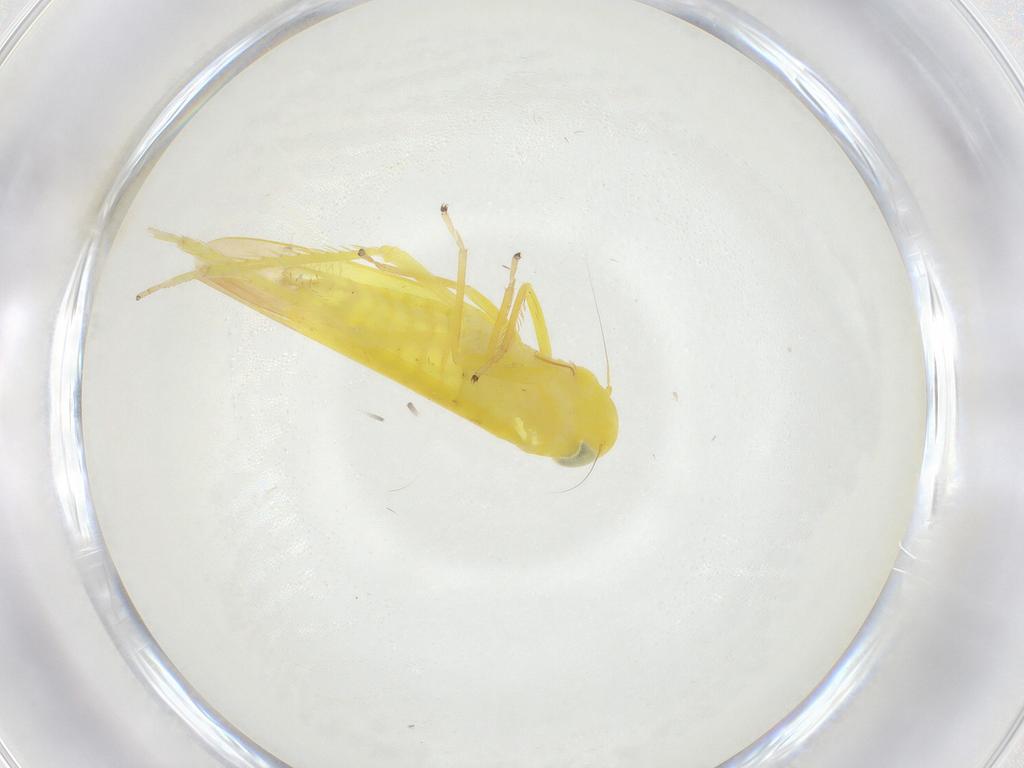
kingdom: Animalia
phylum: Arthropoda
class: Insecta
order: Hemiptera
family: Cicadellidae
